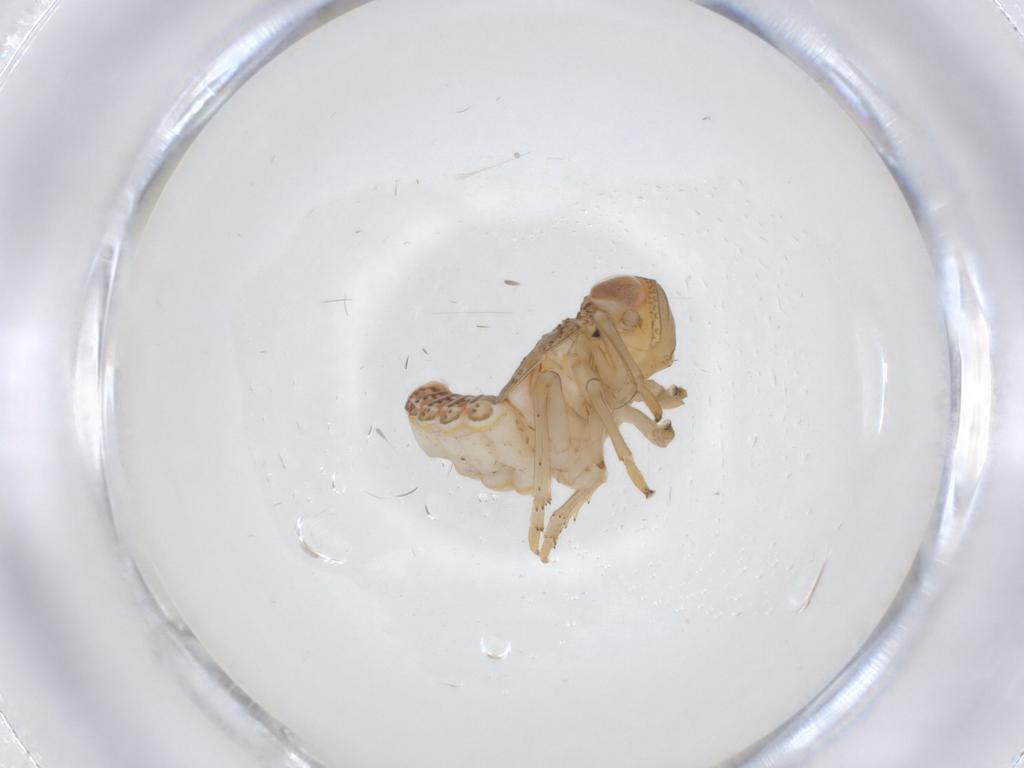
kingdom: Animalia
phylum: Arthropoda
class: Insecta
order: Hemiptera
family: Issidae
